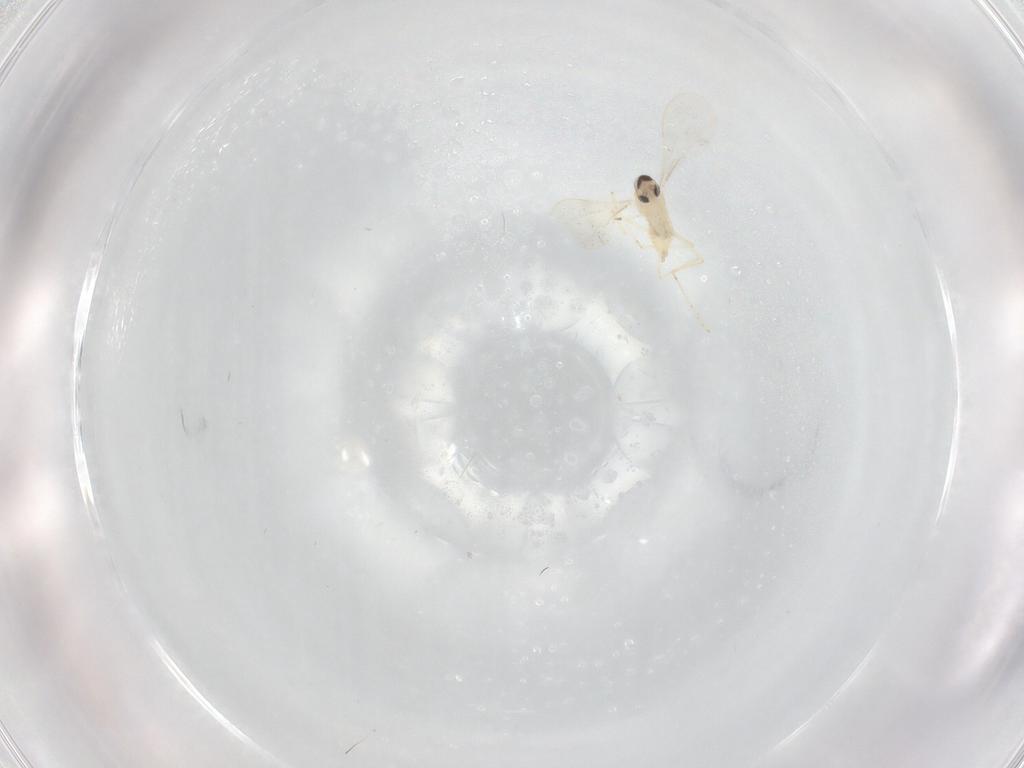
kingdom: Animalia
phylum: Arthropoda
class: Insecta
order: Diptera
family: Cecidomyiidae
